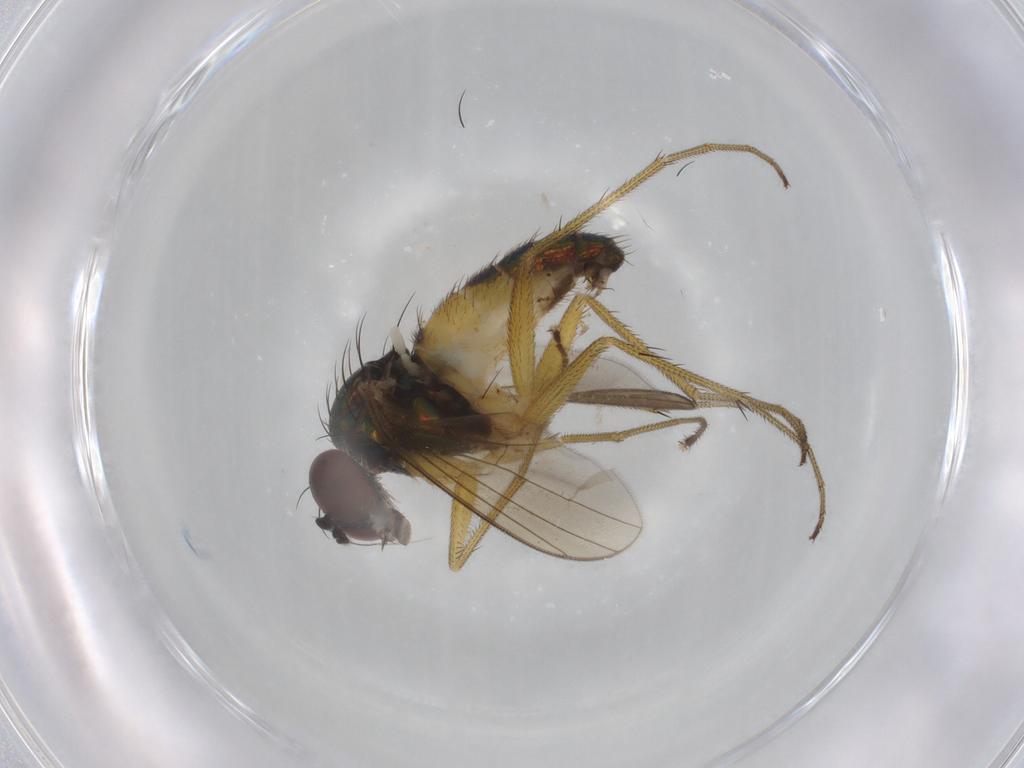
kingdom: Animalia
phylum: Arthropoda
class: Insecta
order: Diptera
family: Dolichopodidae
